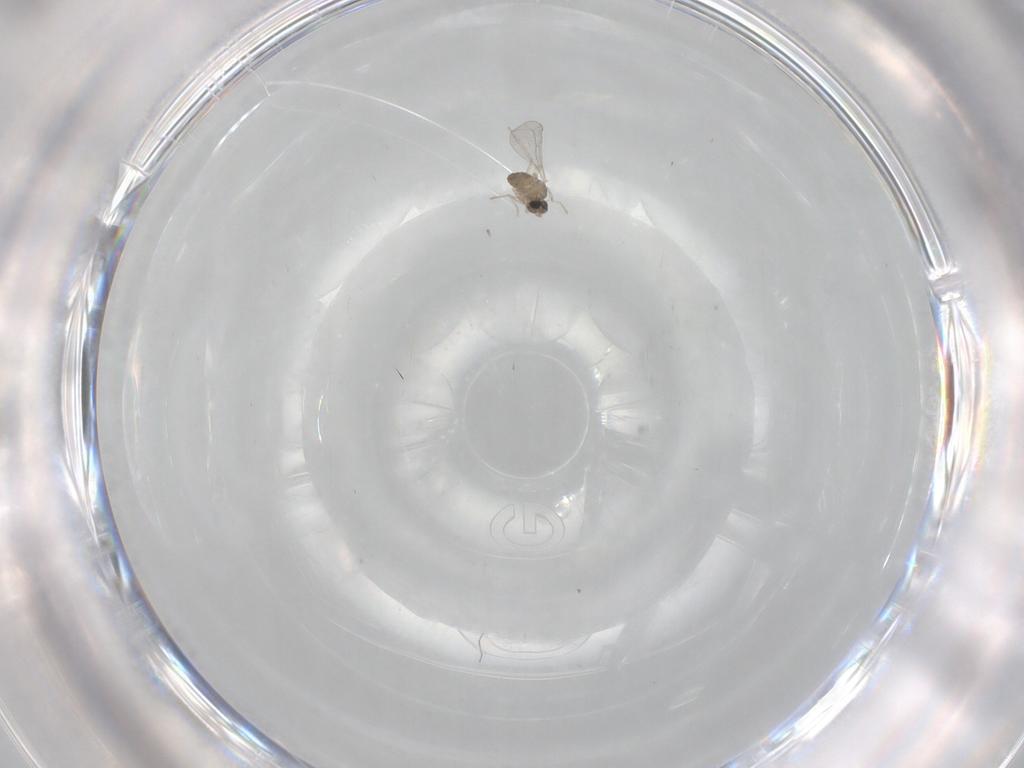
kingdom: Animalia
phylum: Arthropoda
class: Insecta
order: Diptera
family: Cecidomyiidae
